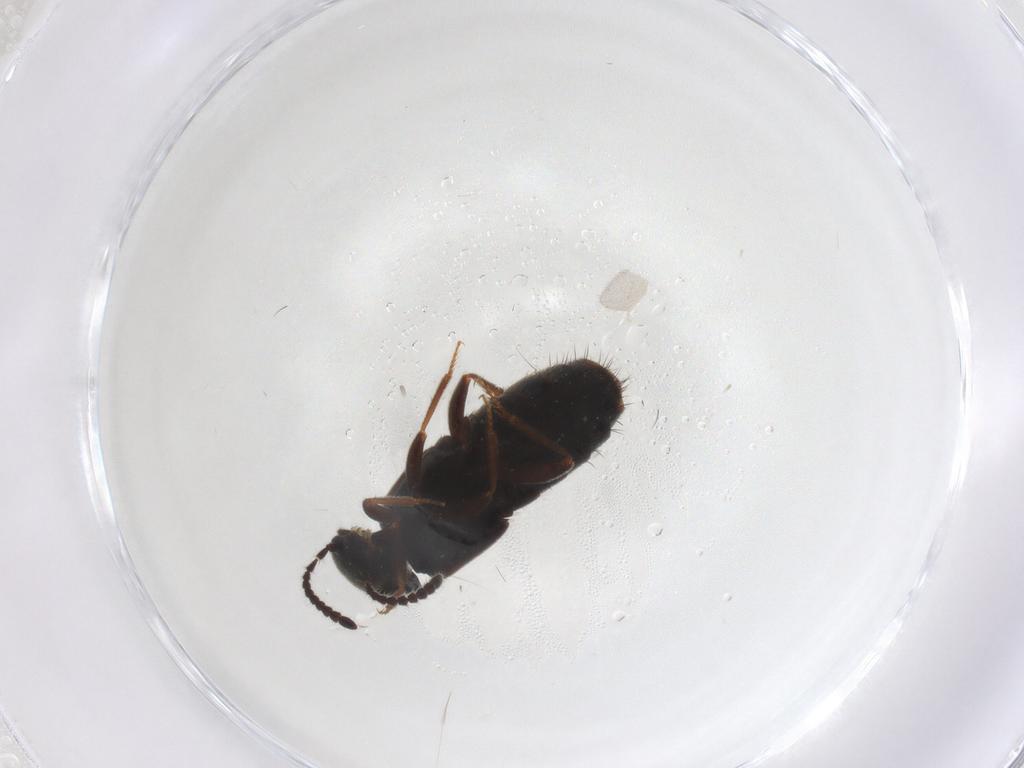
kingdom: Animalia
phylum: Arthropoda
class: Insecta
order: Coleoptera
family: Staphylinidae
